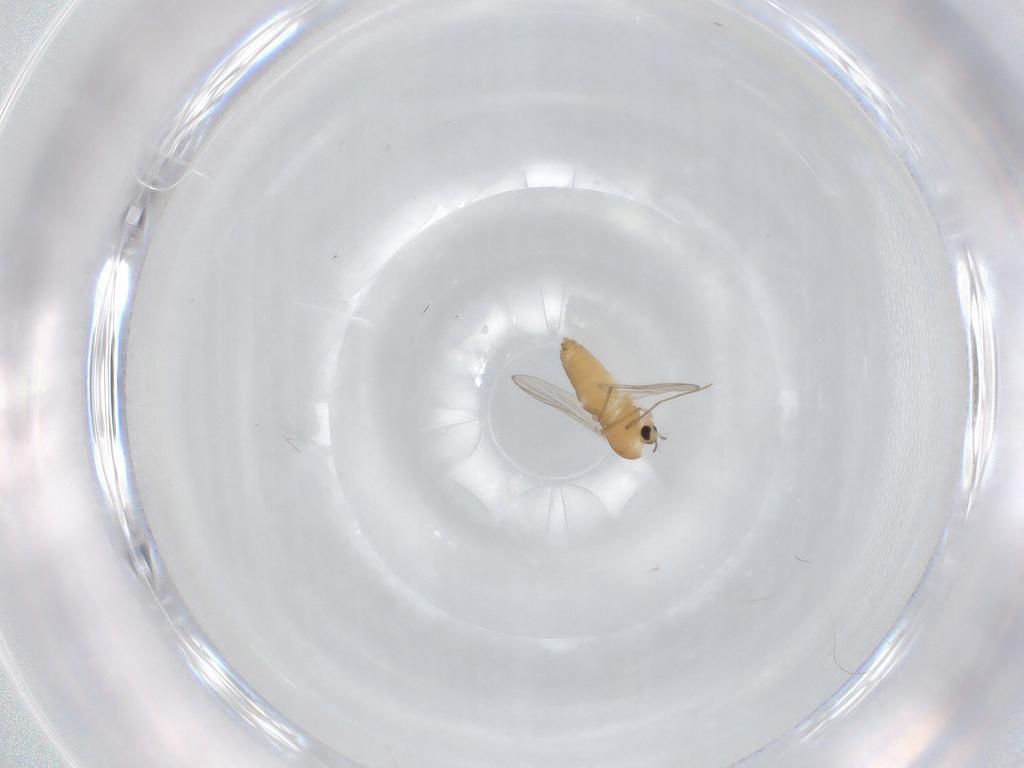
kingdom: Animalia
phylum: Arthropoda
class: Insecta
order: Diptera
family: Chironomidae
